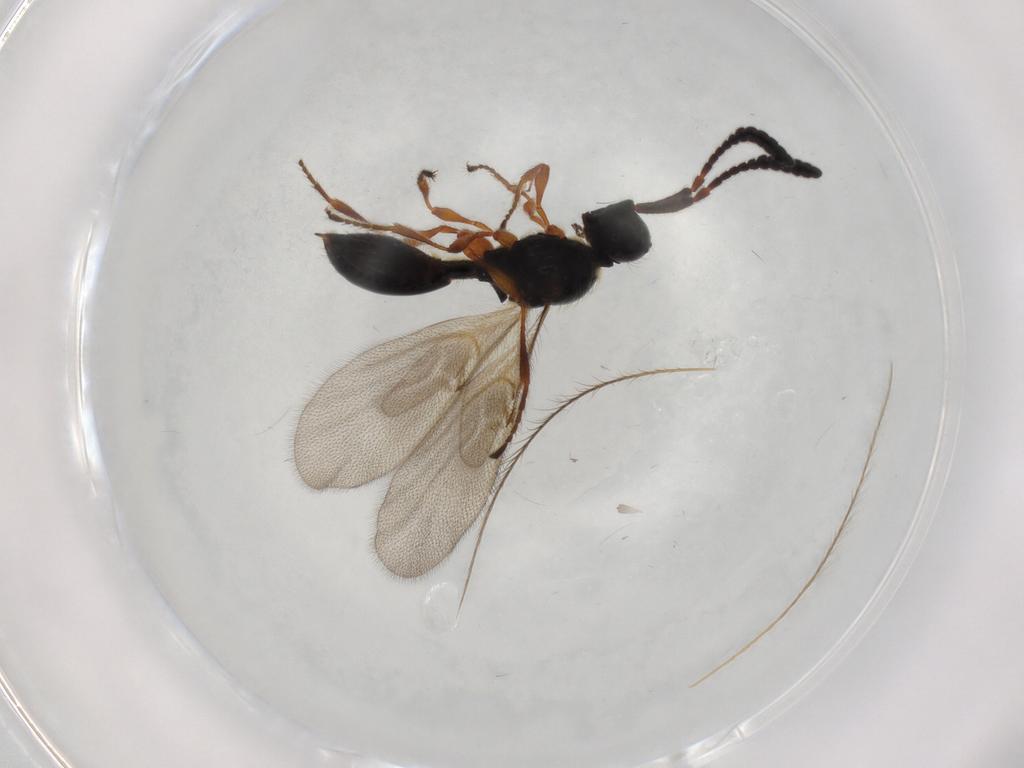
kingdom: Animalia
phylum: Arthropoda
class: Insecta
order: Hymenoptera
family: Diapriidae
